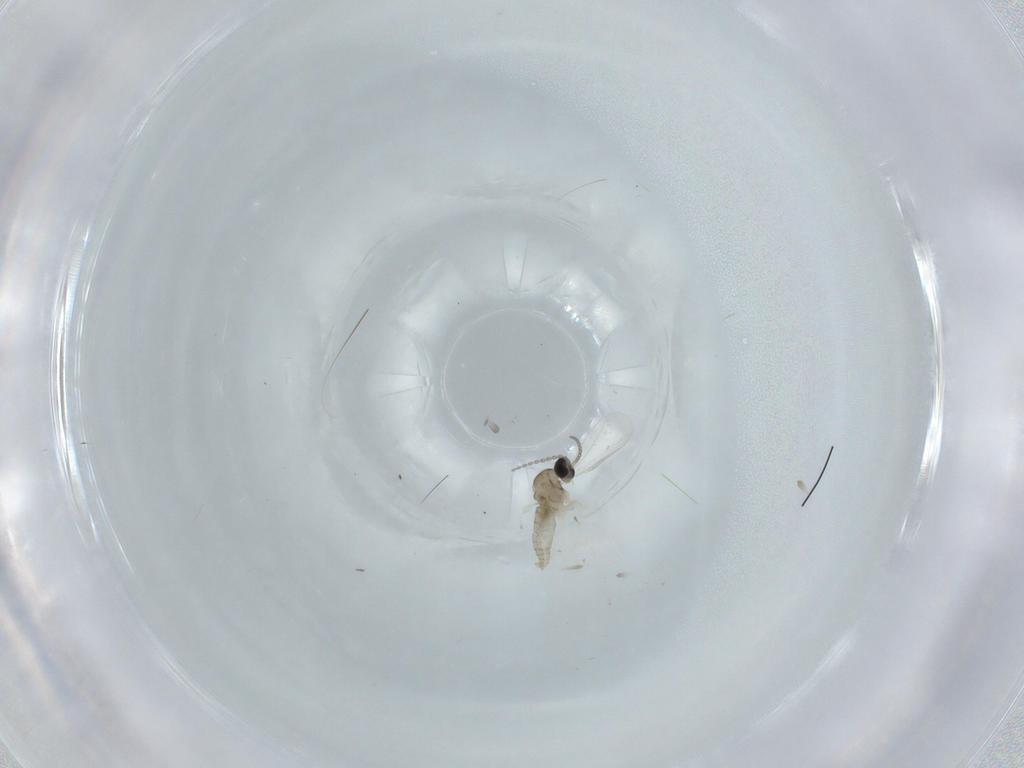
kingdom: Animalia
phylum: Arthropoda
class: Insecta
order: Diptera
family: Cecidomyiidae
